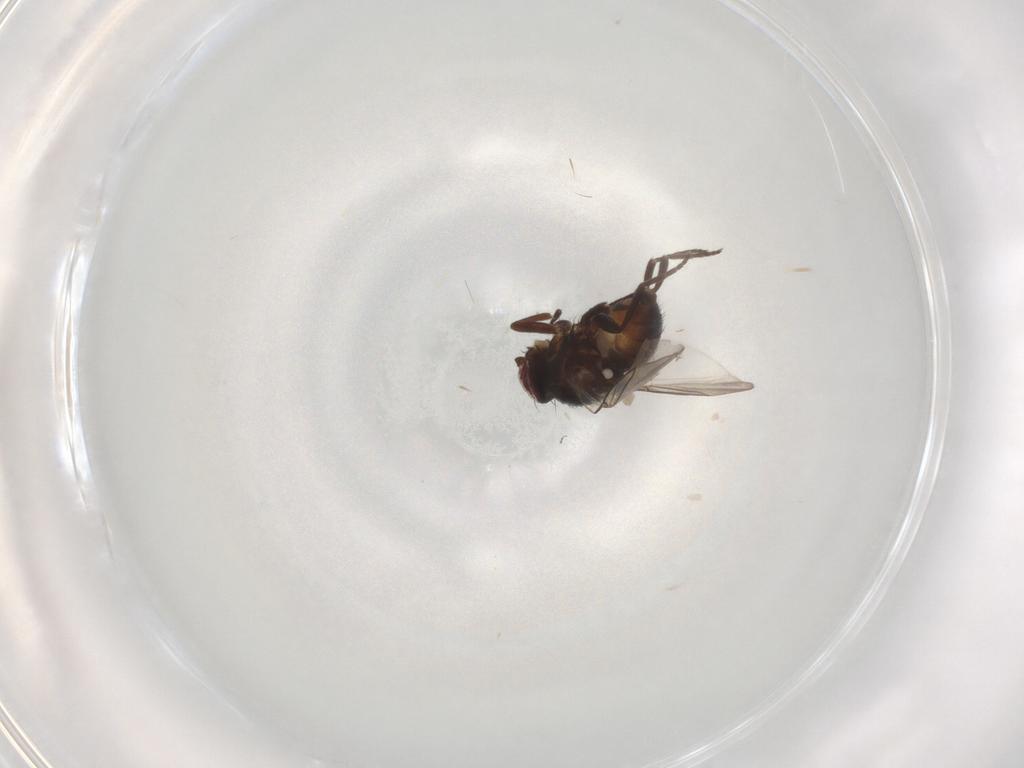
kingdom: Animalia
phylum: Arthropoda
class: Insecta
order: Diptera
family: Dolichopodidae
